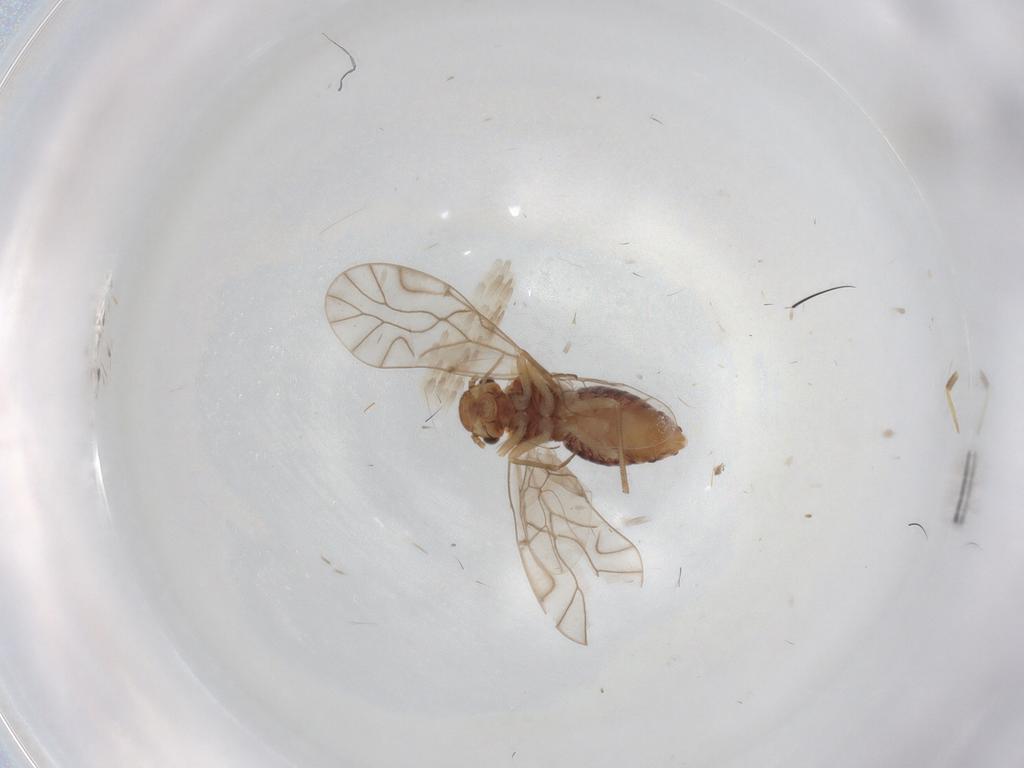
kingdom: Animalia
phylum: Arthropoda
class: Insecta
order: Psocodea
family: Lachesillidae
